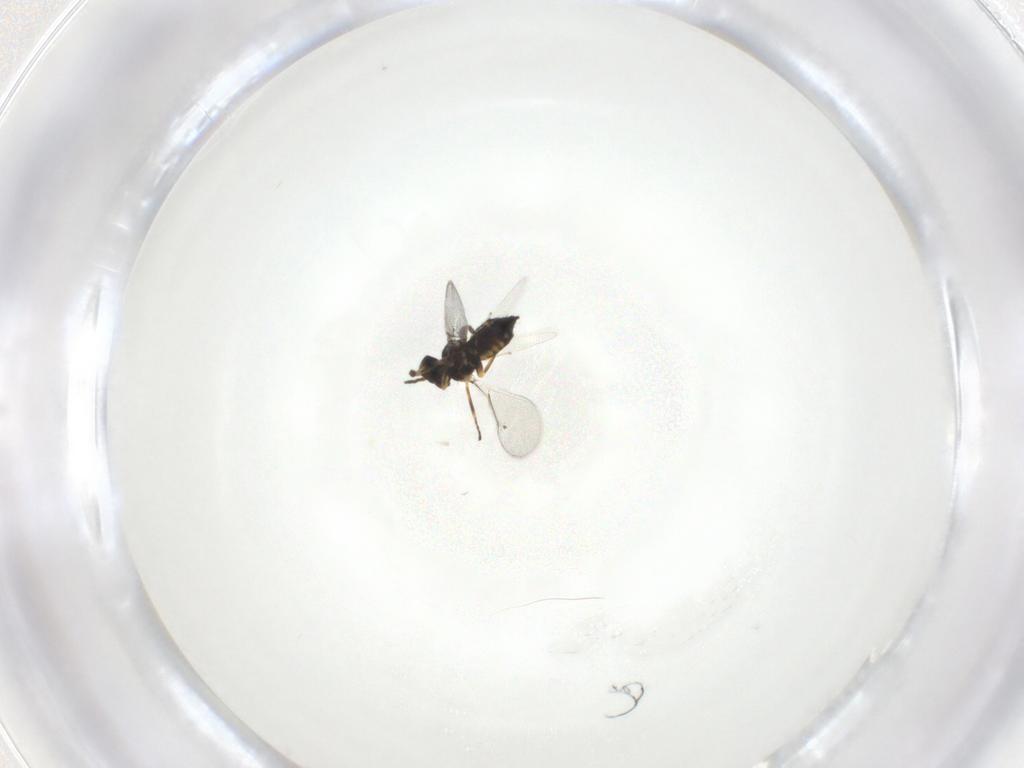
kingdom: Animalia
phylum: Arthropoda
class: Insecta
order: Hymenoptera
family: Eulophidae
